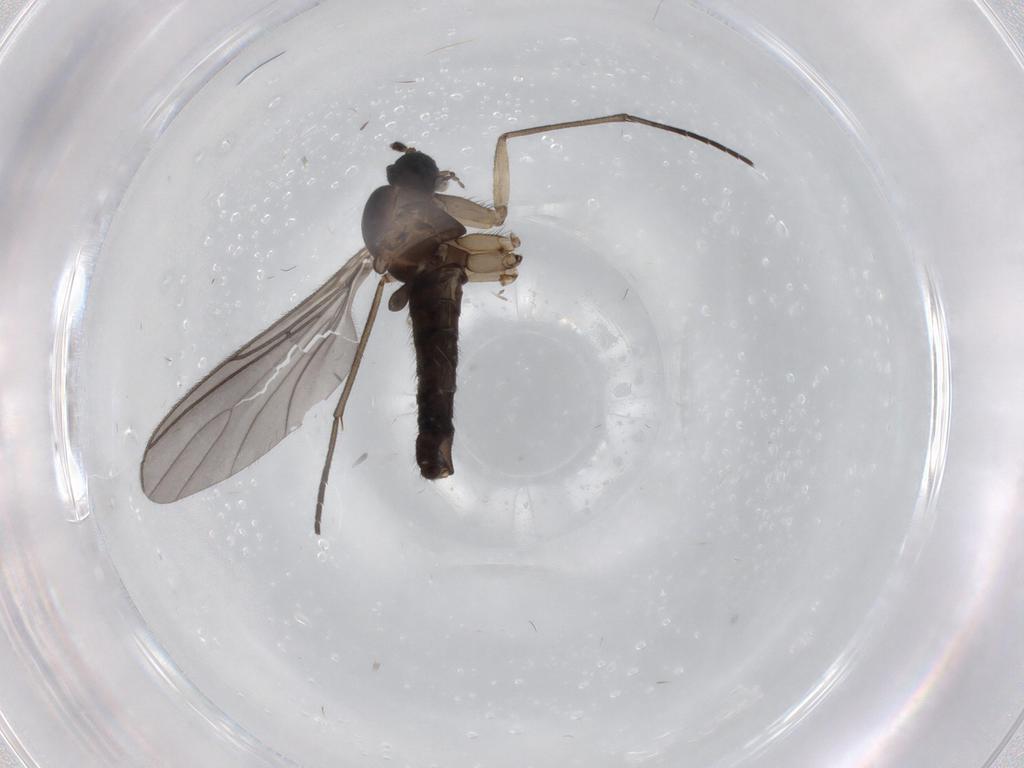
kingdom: Animalia
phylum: Arthropoda
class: Insecta
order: Diptera
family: Sciaridae
